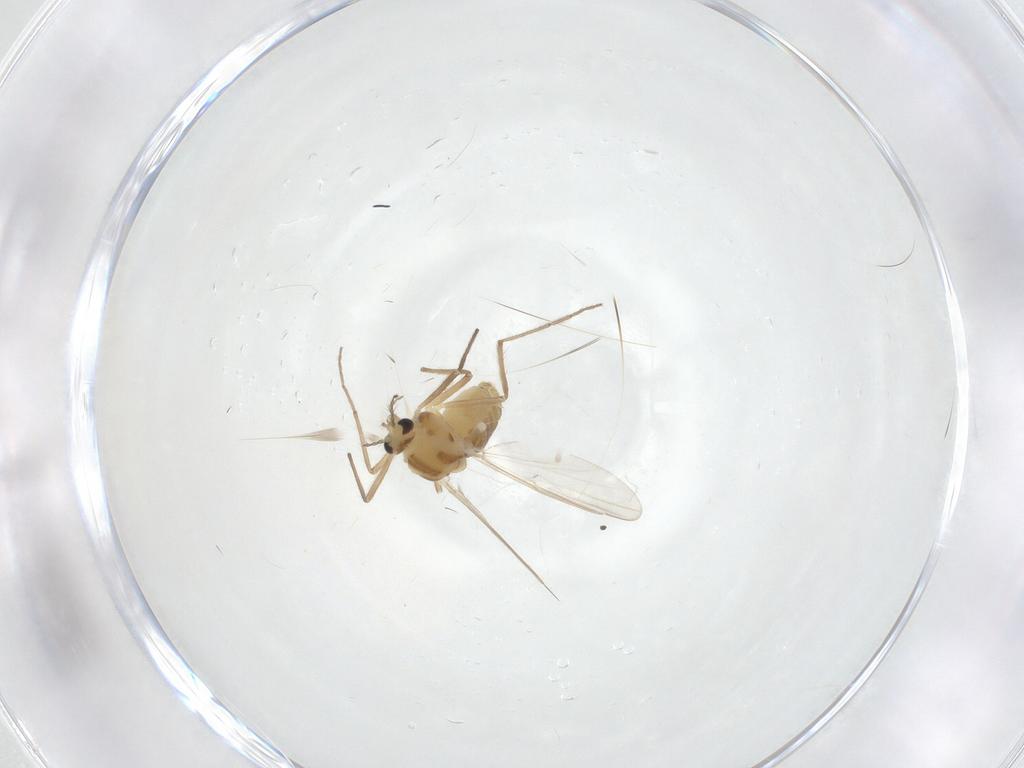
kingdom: Animalia
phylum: Arthropoda
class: Insecta
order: Diptera
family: Chironomidae
